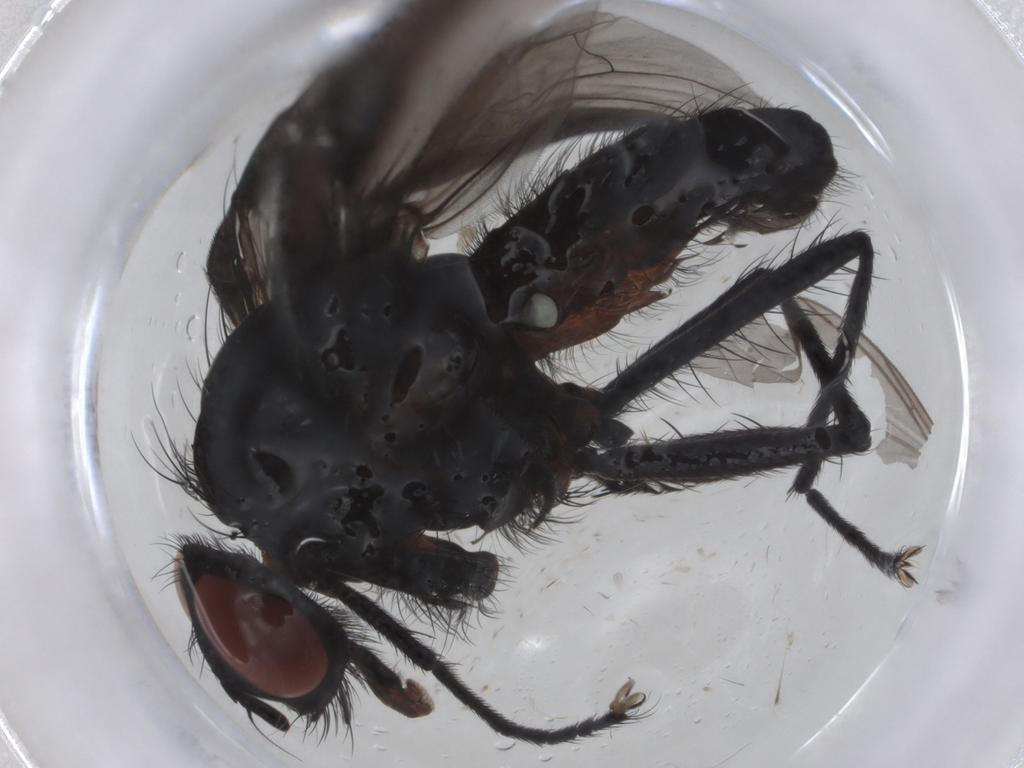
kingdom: Animalia
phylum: Arthropoda
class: Insecta
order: Diptera
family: Anthomyiidae
